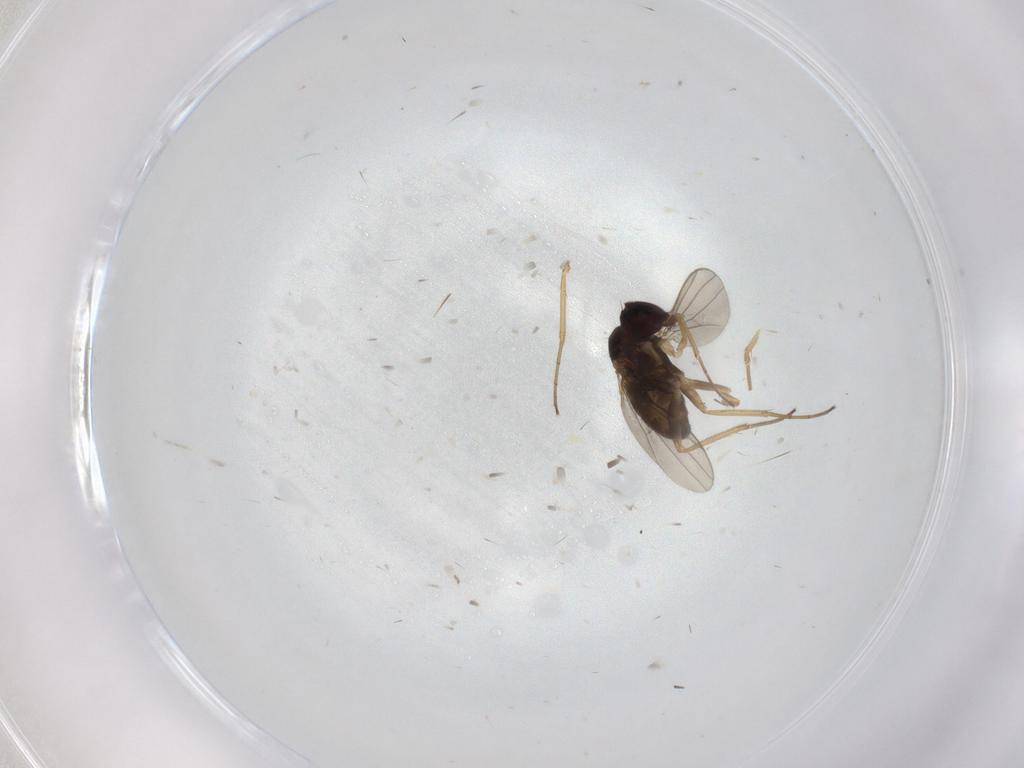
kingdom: Animalia
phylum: Arthropoda
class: Insecta
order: Diptera
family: Dolichopodidae
